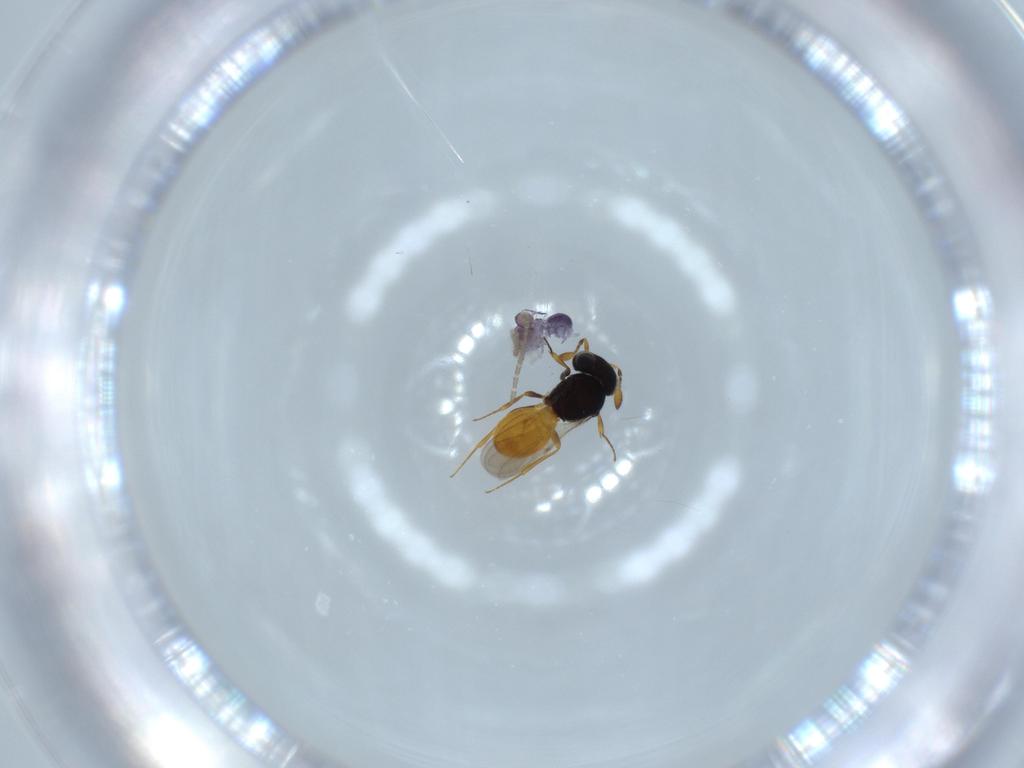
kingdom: Animalia
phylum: Arthropoda
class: Insecta
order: Hymenoptera
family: Scelionidae
